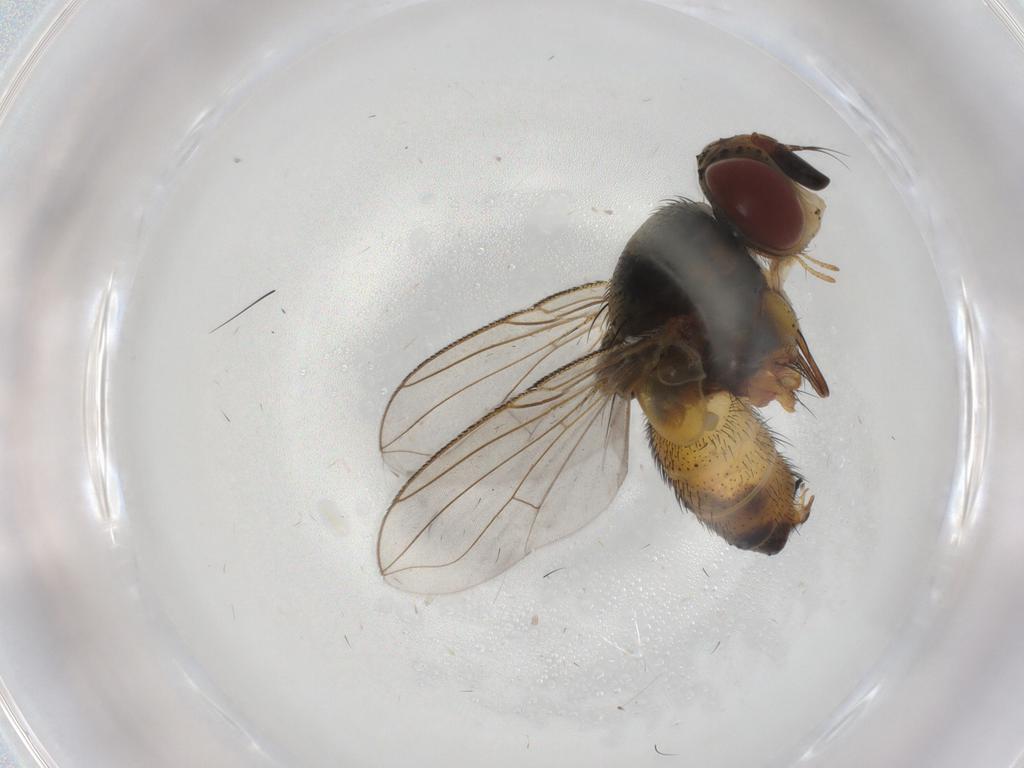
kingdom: Animalia
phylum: Arthropoda
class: Insecta
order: Diptera
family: Tachinidae
